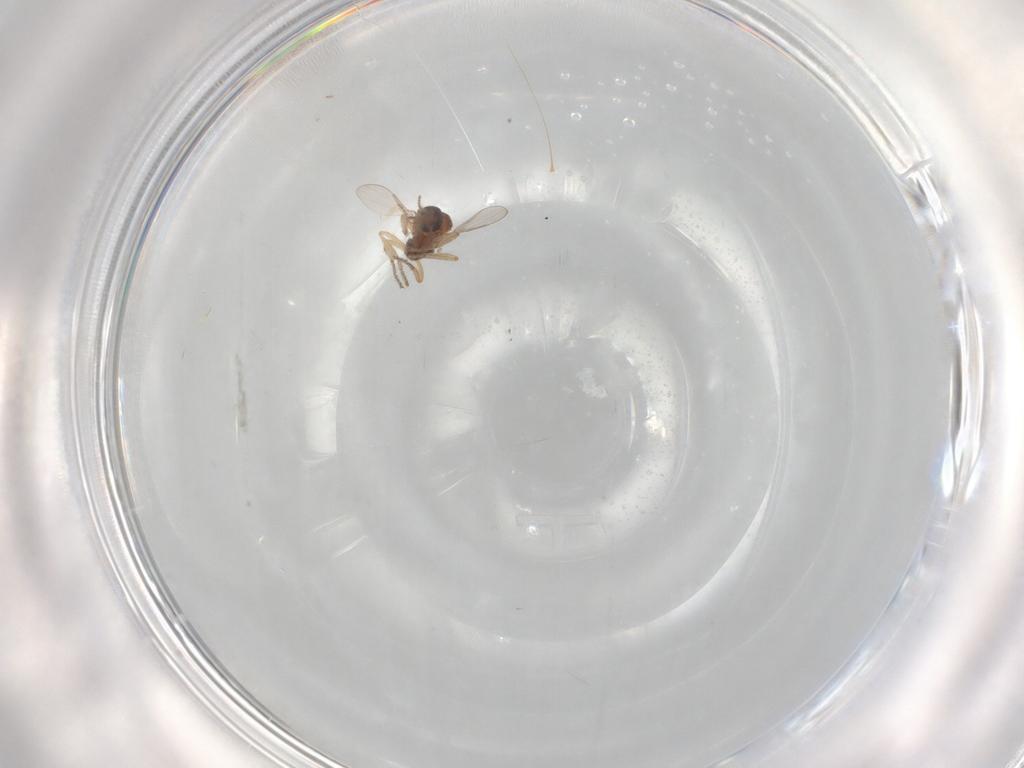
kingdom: Animalia
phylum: Arthropoda
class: Insecta
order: Diptera
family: Ceratopogonidae
